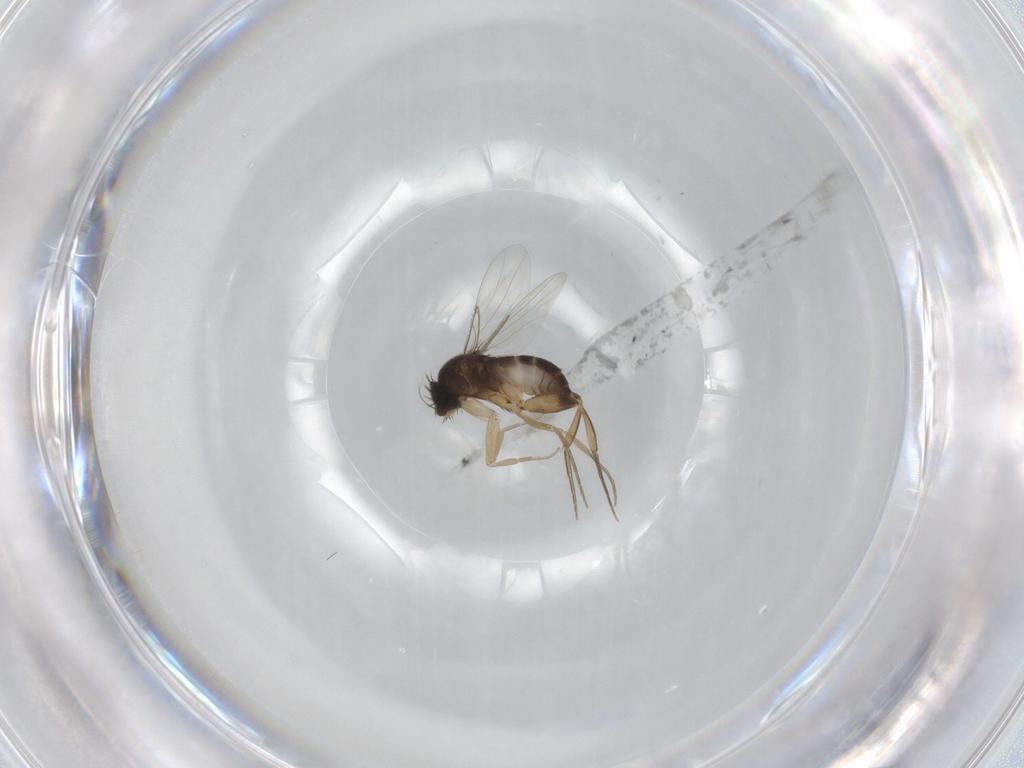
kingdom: Animalia
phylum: Arthropoda
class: Insecta
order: Diptera
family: Phoridae
